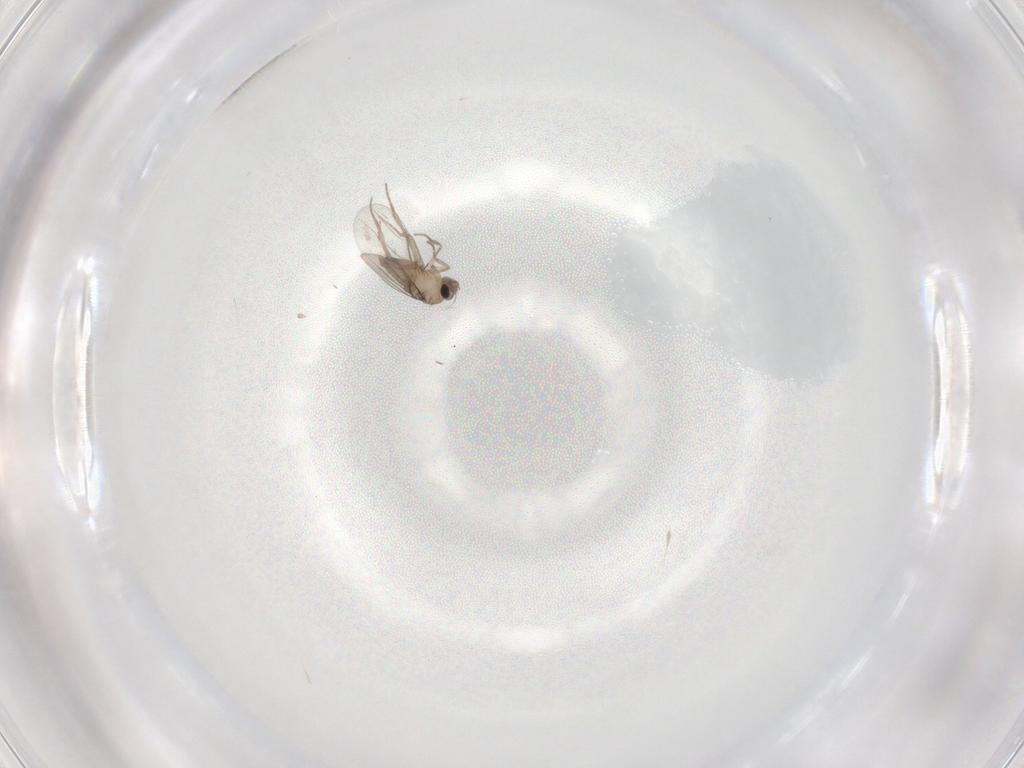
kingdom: Animalia
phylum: Arthropoda
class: Insecta
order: Diptera
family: Phoridae
